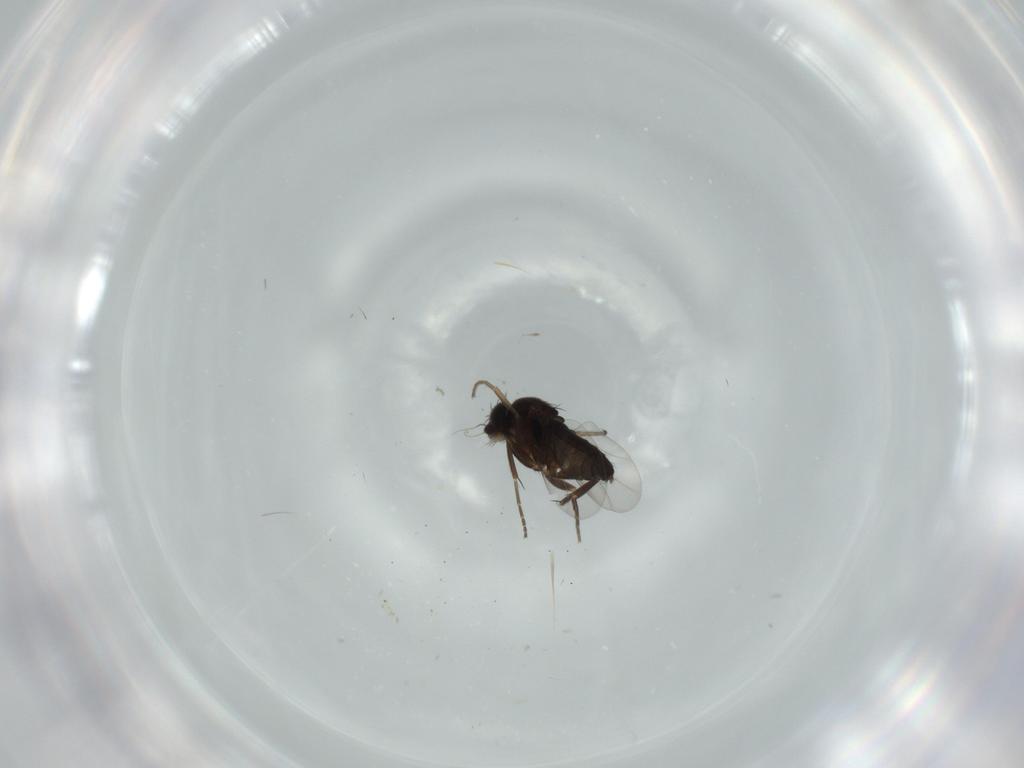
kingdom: Animalia
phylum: Arthropoda
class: Insecta
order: Diptera
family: Phoridae
